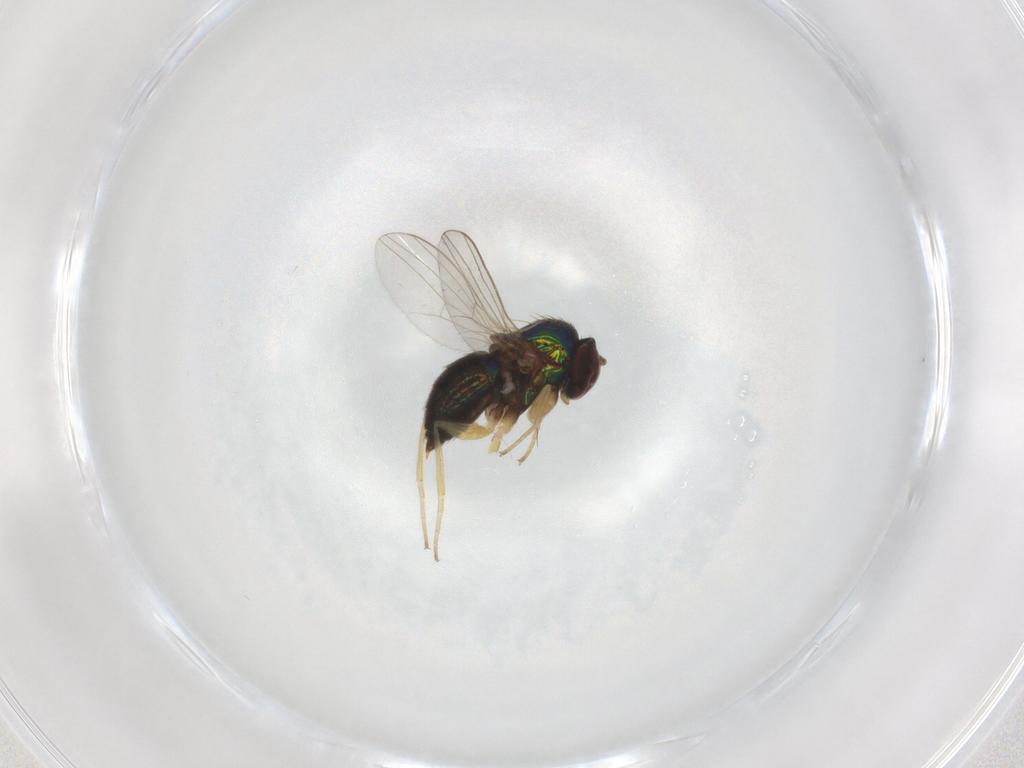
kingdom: Animalia
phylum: Arthropoda
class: Insecta
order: Diptera
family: Dolichopodidae
